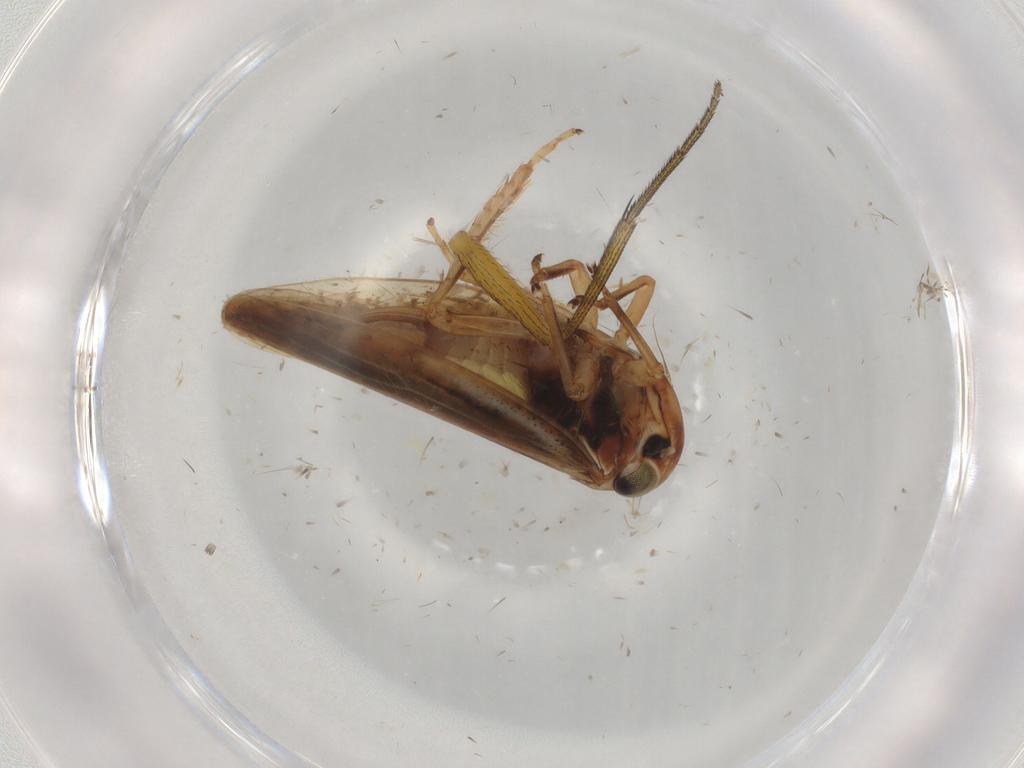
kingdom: Animalia
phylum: Arthropoda
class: Insecta
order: Hemiptera
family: Cicadellidae
